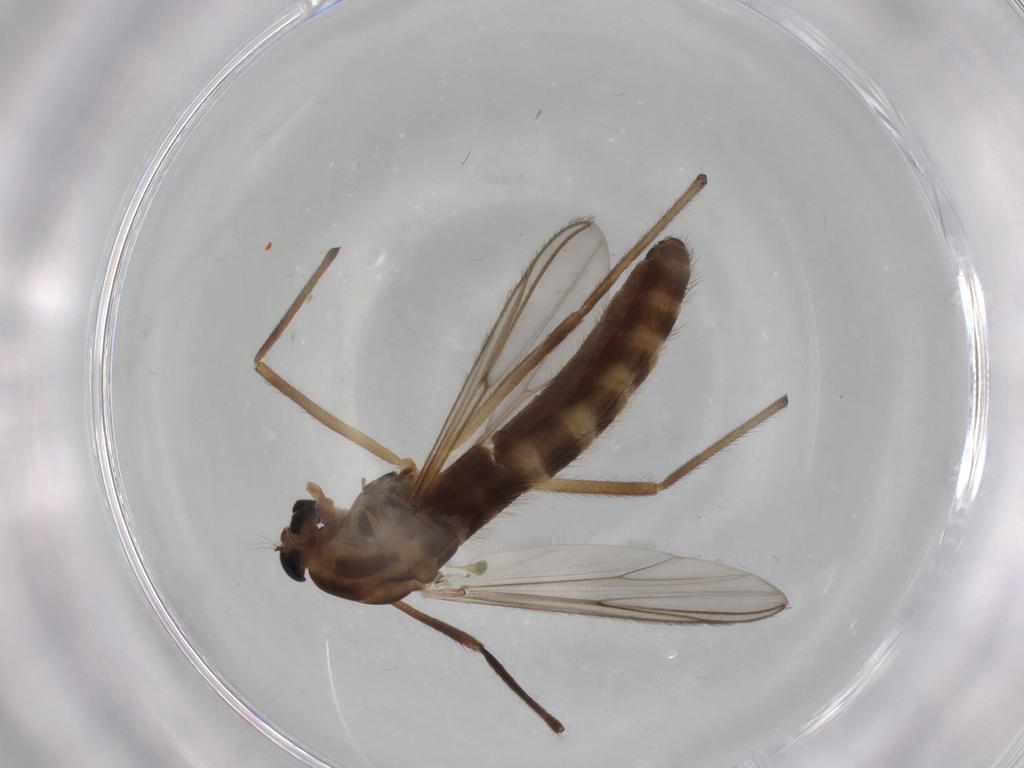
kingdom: Animalia
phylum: Arthropoda
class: Insecta
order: Diptera
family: Chironomidae
